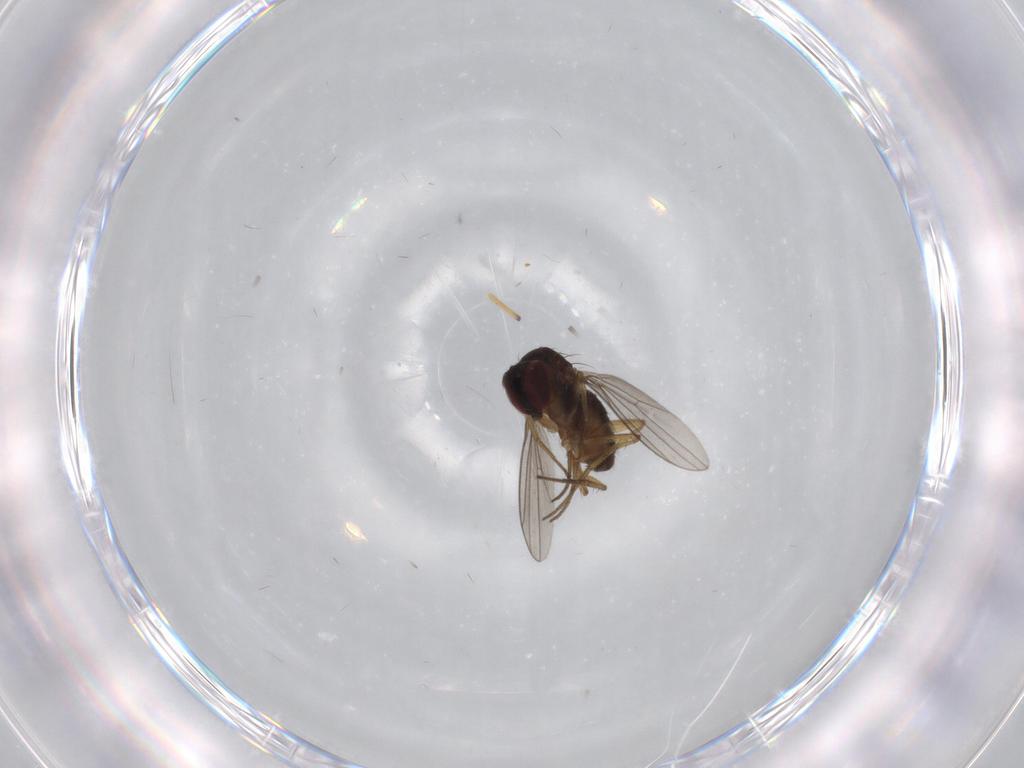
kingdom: Animalia
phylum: Arthropoda
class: Insecta
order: Diptera
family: Dolichopodidae
